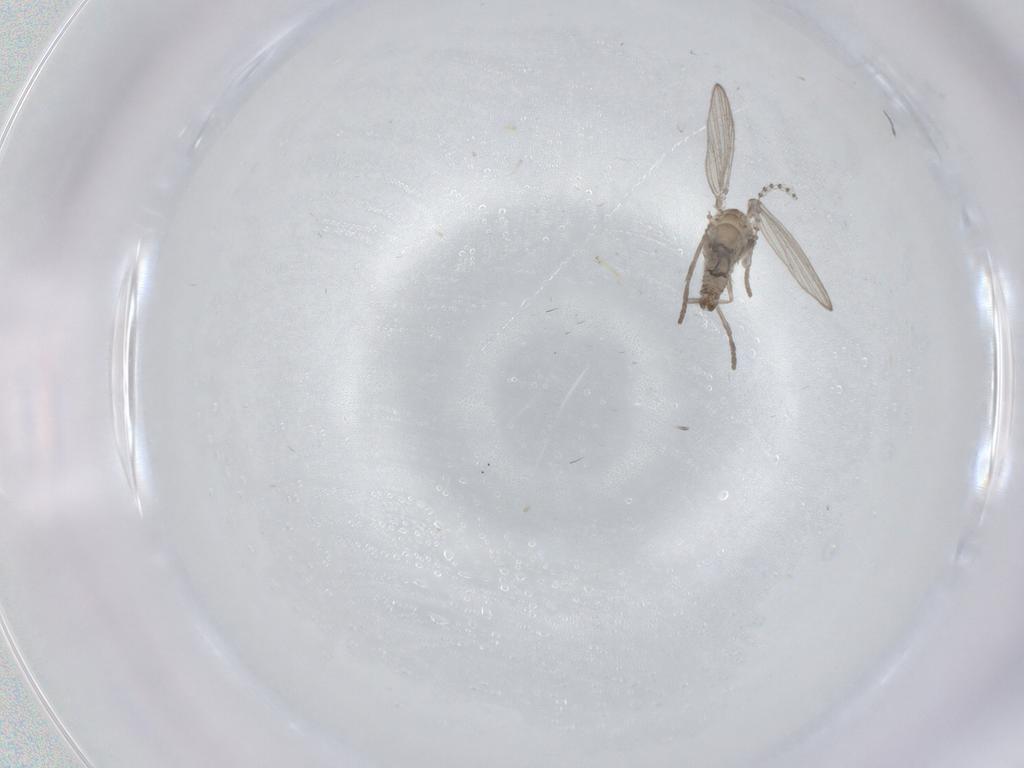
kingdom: Animalia
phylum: Arthropoda
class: Insecta
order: Diptera
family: Psychodidae
